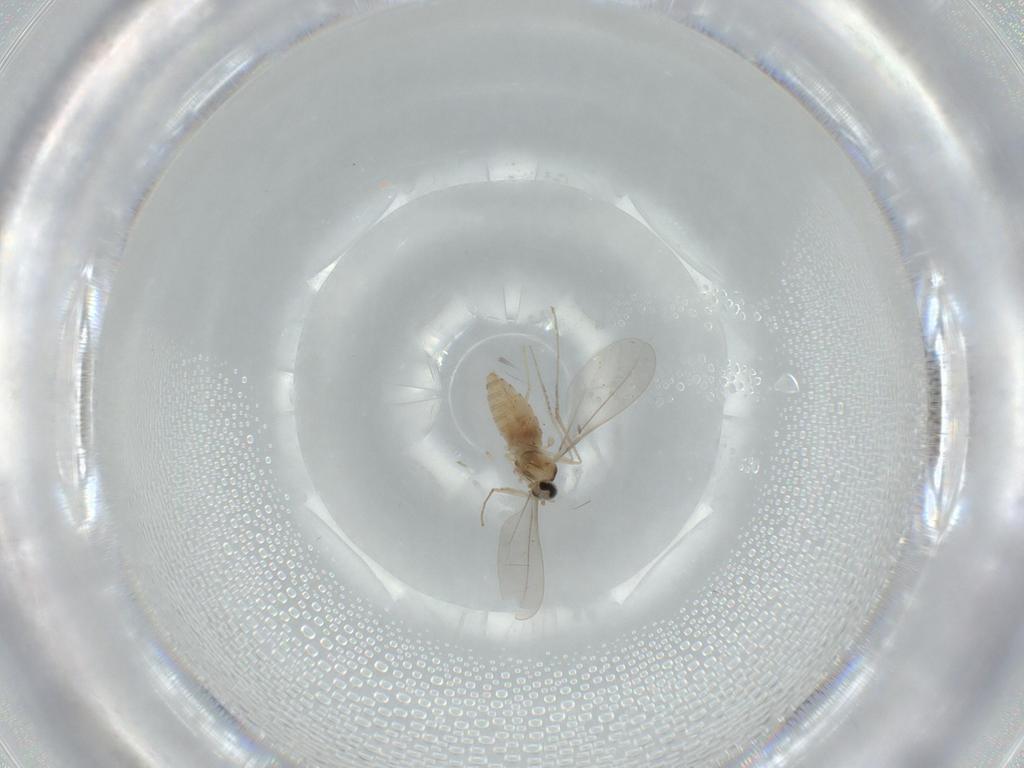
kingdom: Animalia
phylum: Arthropoda
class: Insecta
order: Diptera
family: Cecidomyiidae
